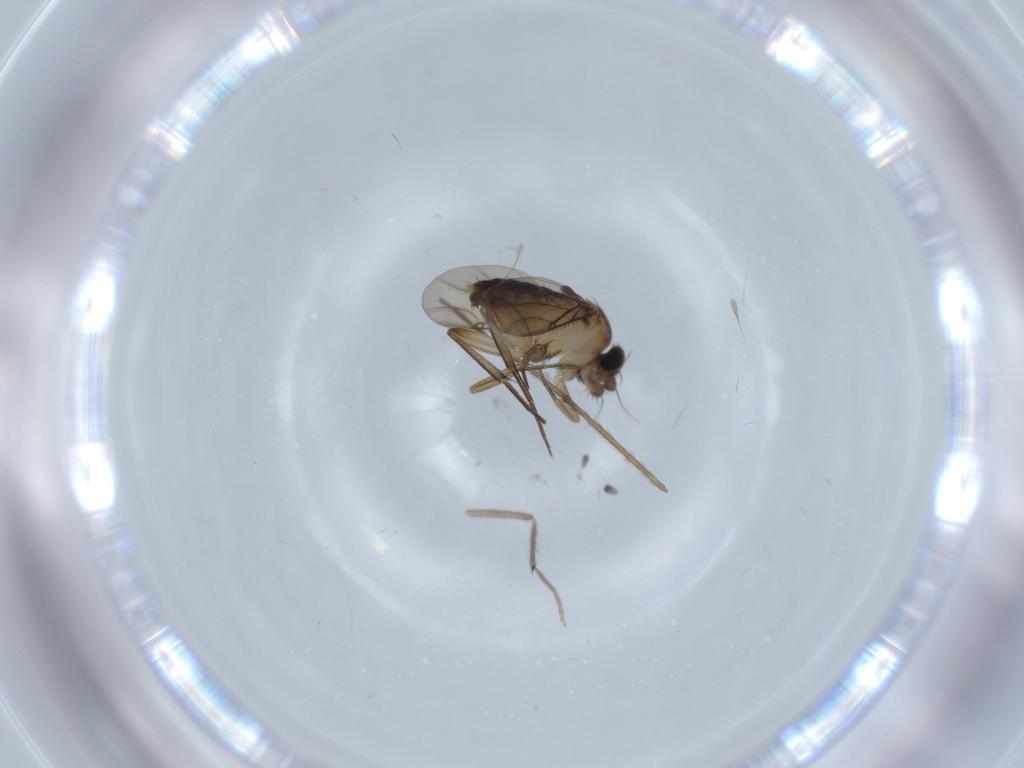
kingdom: Animalia
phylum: Arthropoda
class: Insecta
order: Diptera
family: Phoridae
